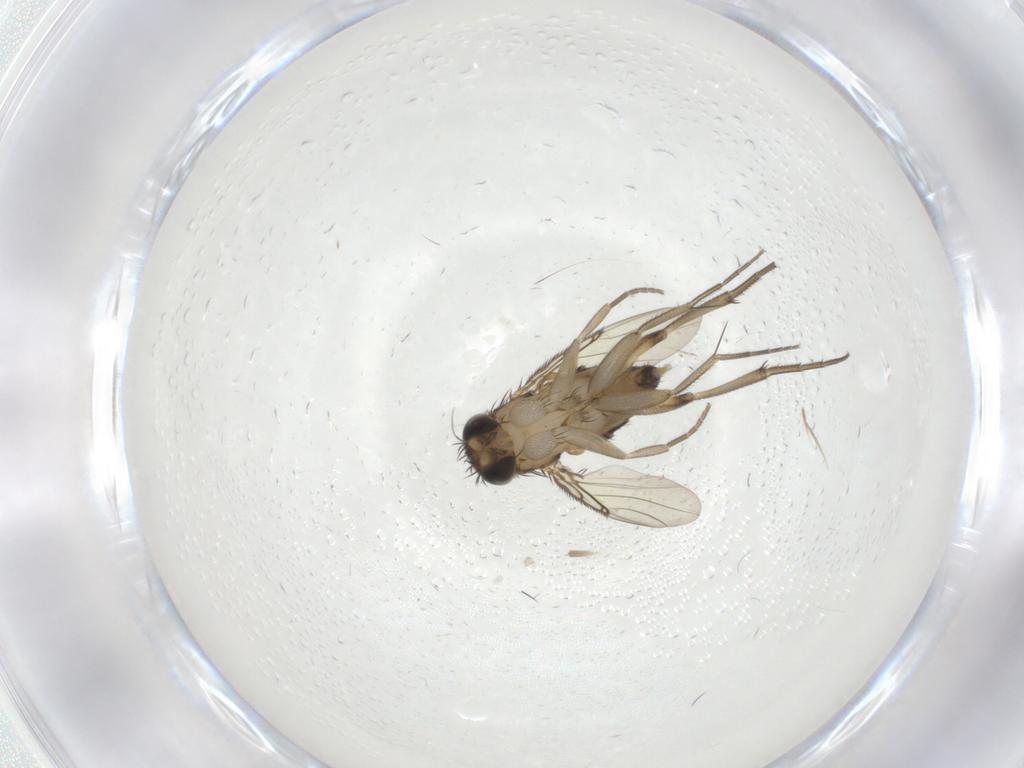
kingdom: Animalia
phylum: Arthropoda
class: Insecta
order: Diptera
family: Phoridae
